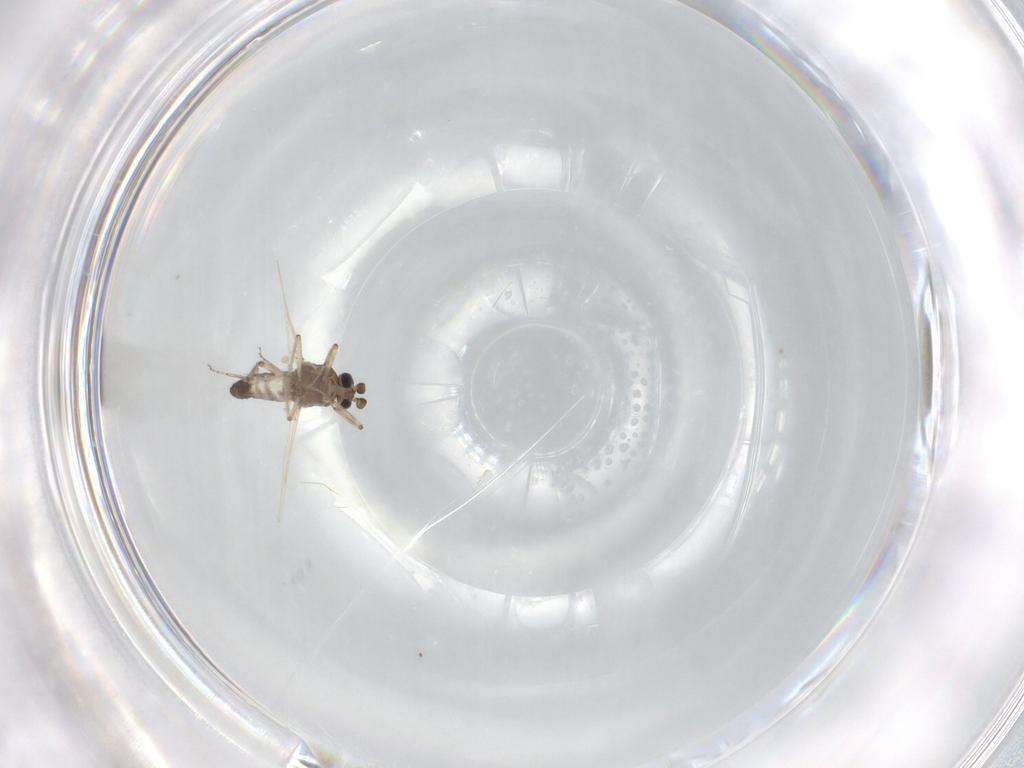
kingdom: Animalia
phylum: Arthropoda
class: Insecta
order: Diptera
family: Ceratopogonidae
